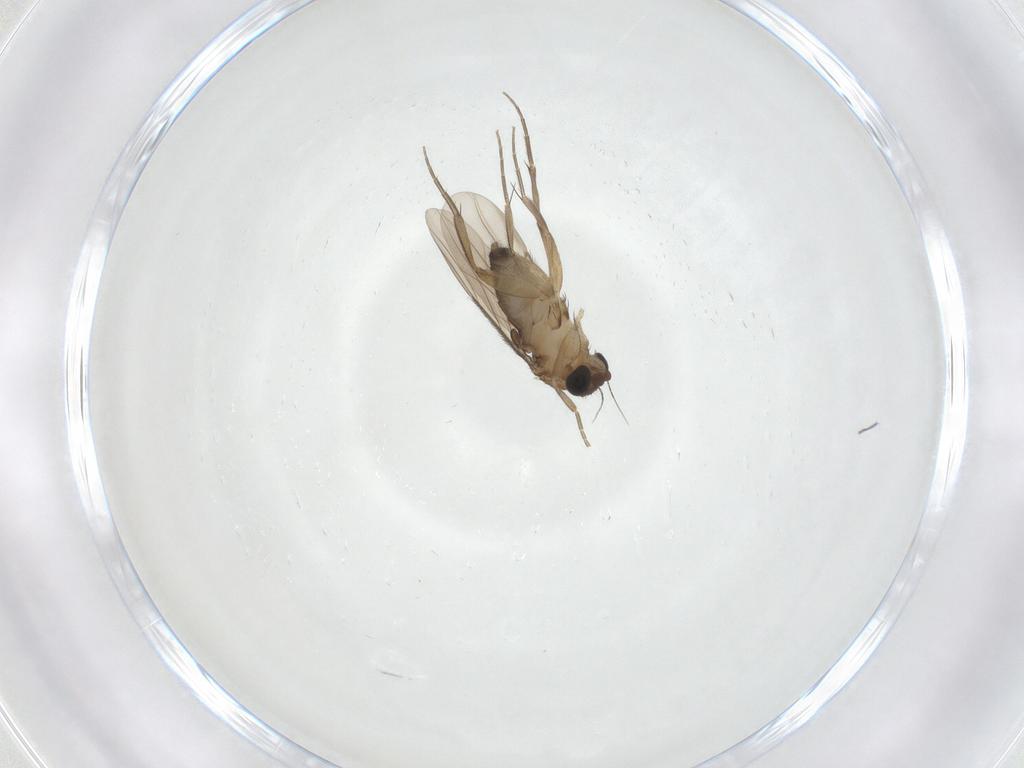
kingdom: Animalia
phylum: Arthropoda
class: Insecta
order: Diptera
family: Phoridae
